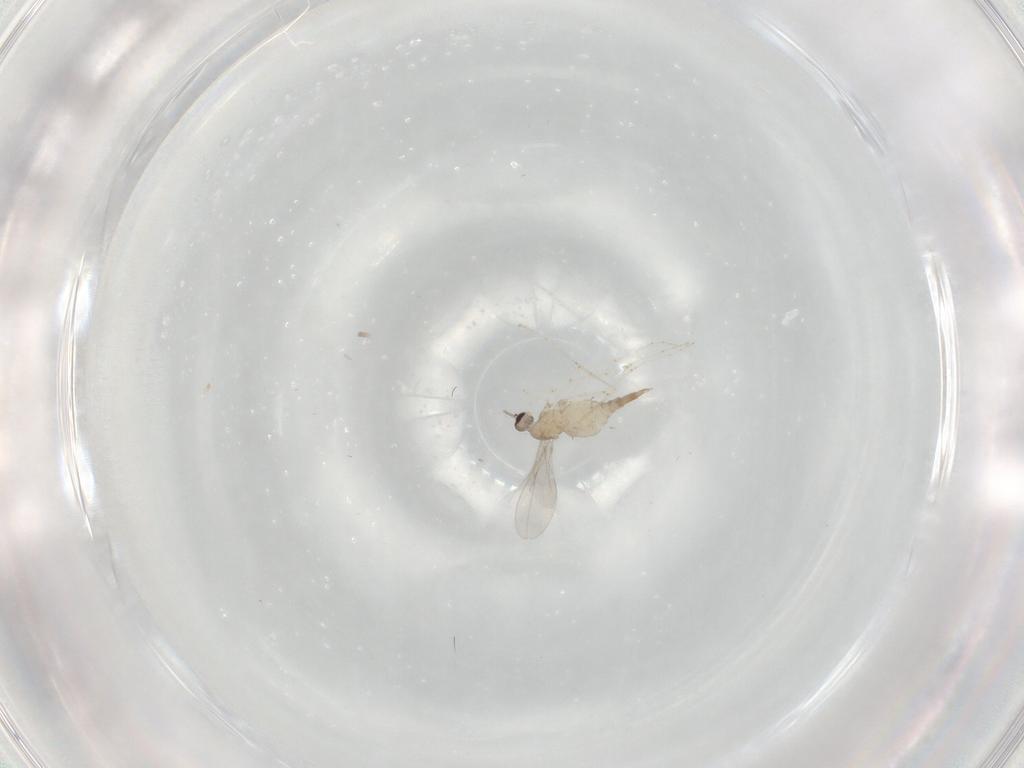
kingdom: Animalia
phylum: Arthropoda
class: Insecta
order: Diptera
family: Cecidomyiidae
